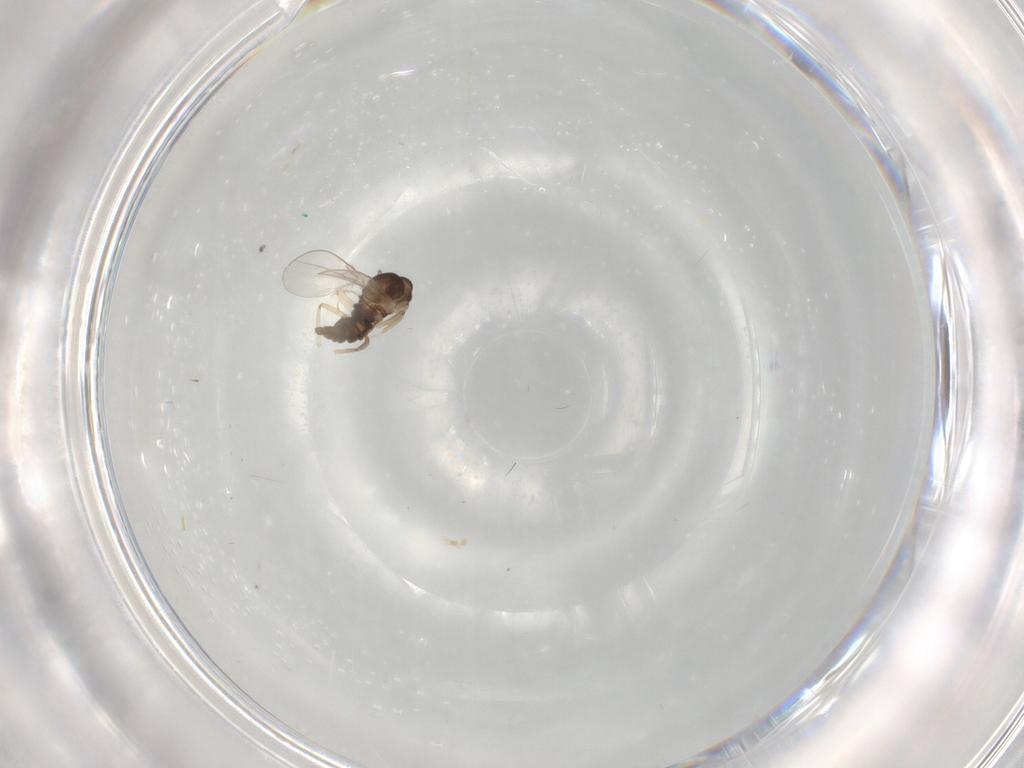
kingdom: Animalia
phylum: Arthropoda
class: Insecta
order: Diptera
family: Cecidomyiidae
